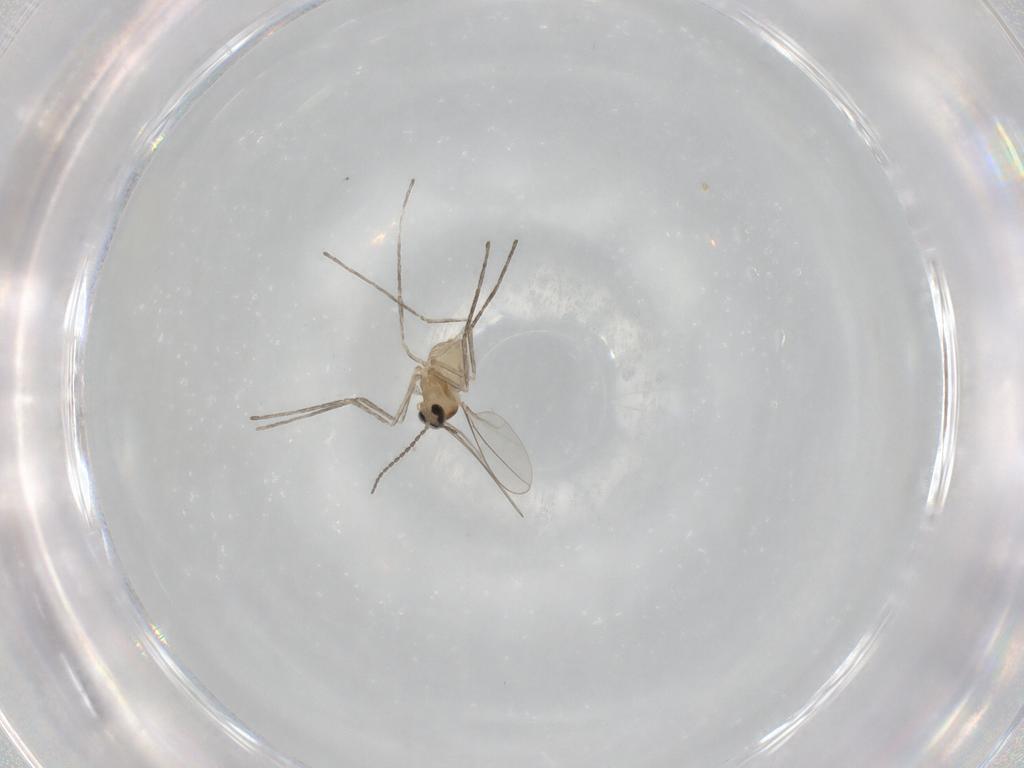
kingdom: Animalia
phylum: Arthropoda
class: Insecta
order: Diptera
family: Cecidomyiidae
